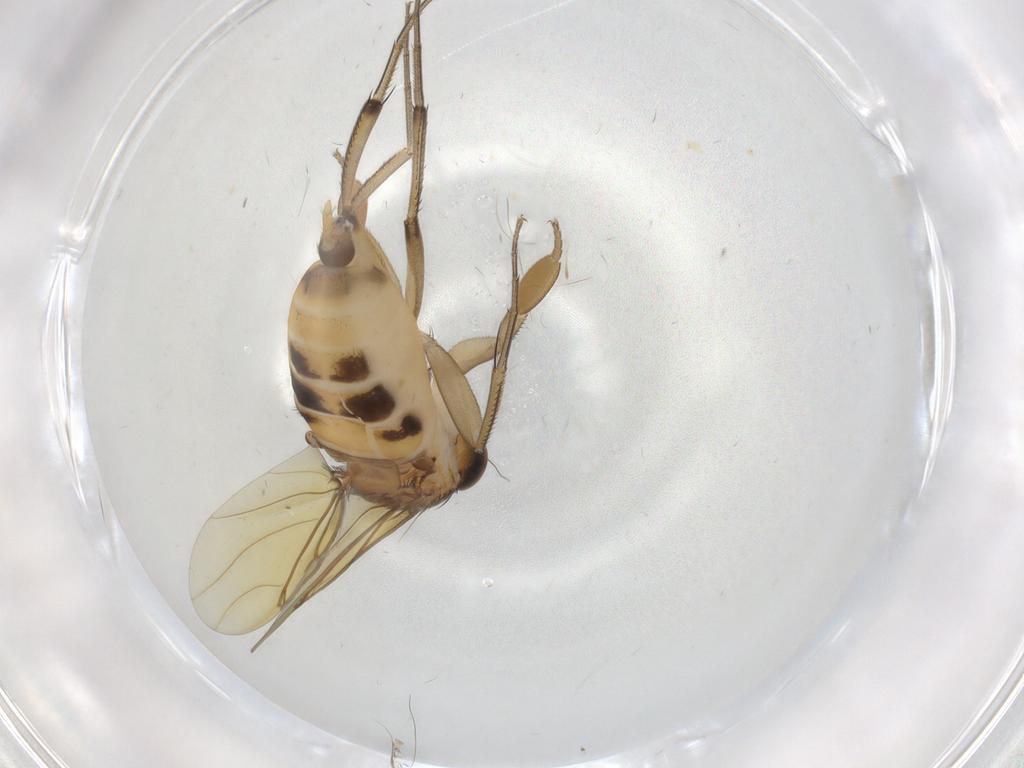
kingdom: Animalia
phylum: Arthropoda
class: Insecta
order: Diptera
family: Phoridae
